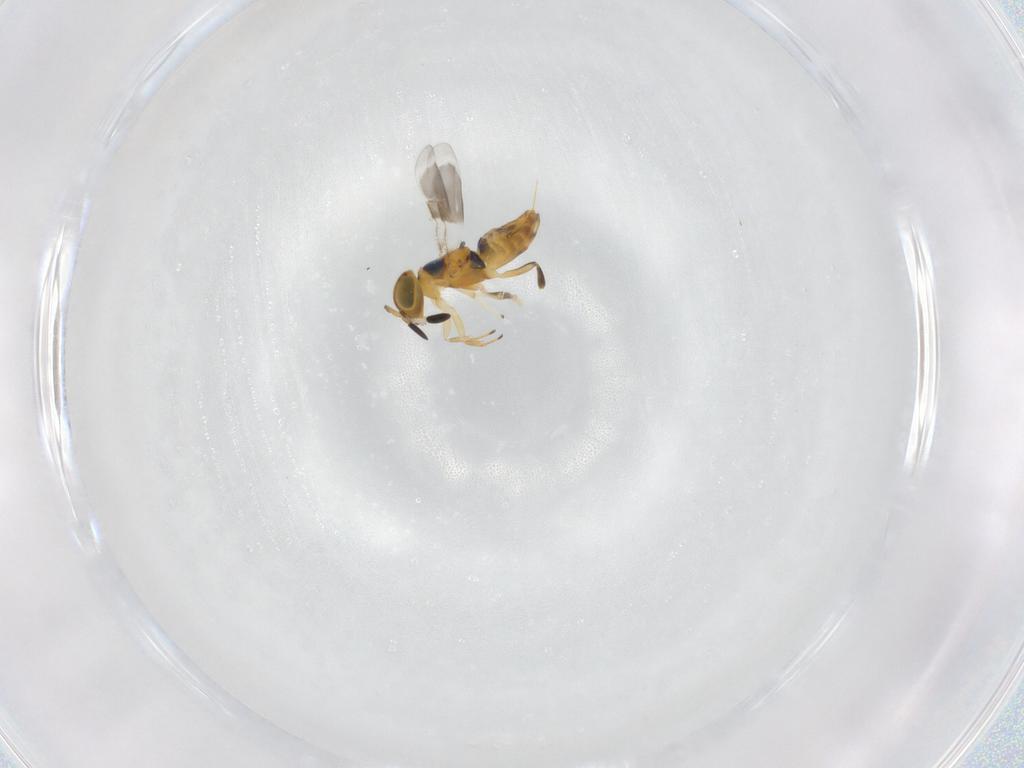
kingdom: Animalia
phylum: Arthropoda
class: Insecta
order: Hymenoptera
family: Encyrtidae
